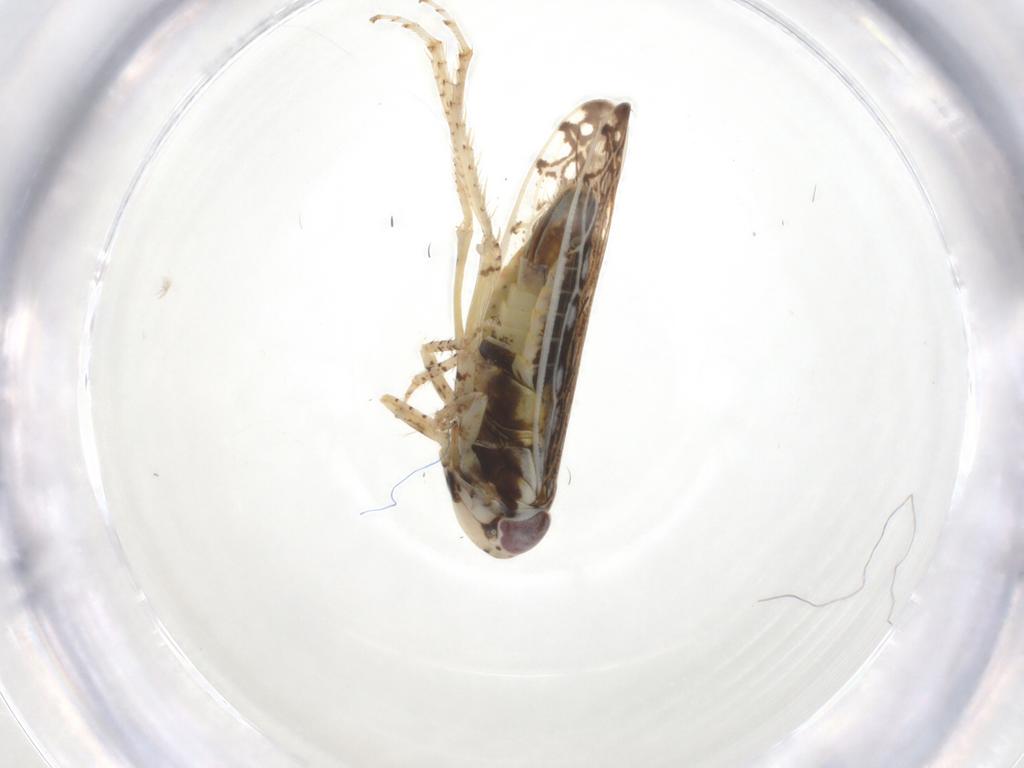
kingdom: Animalia
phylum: Arthropoda
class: Insecta
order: Hemiptera
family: Cicadellidae
